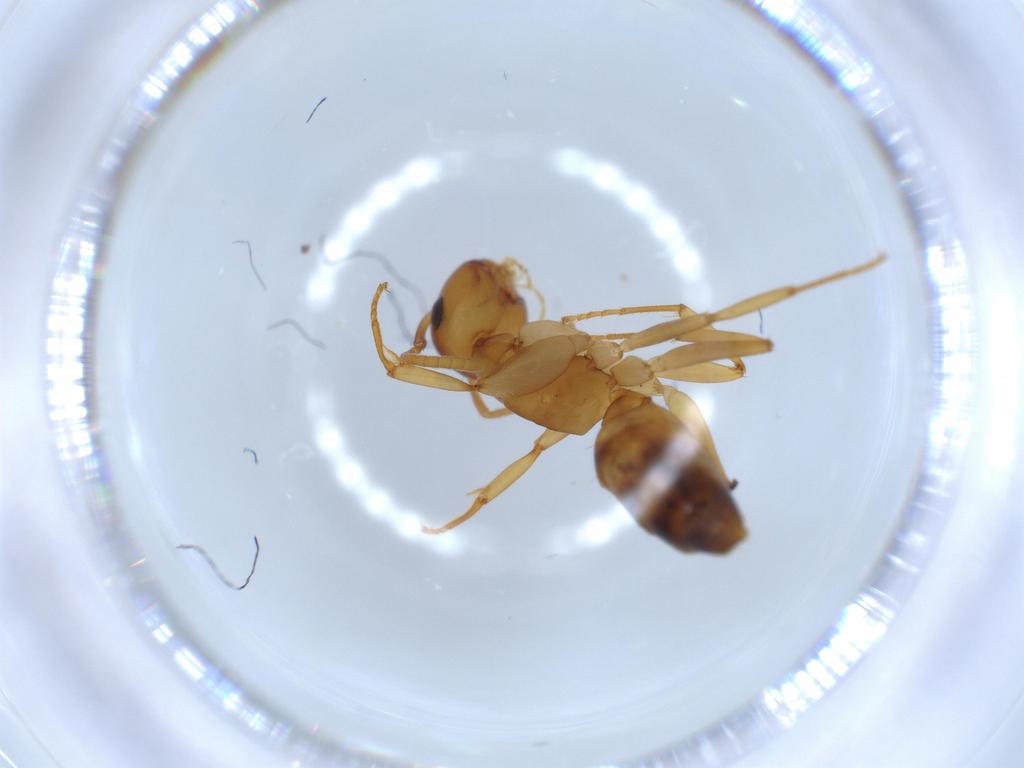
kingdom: Animalia
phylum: Arthropoda
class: Insecta
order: Hymenoptera
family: Formicidae
